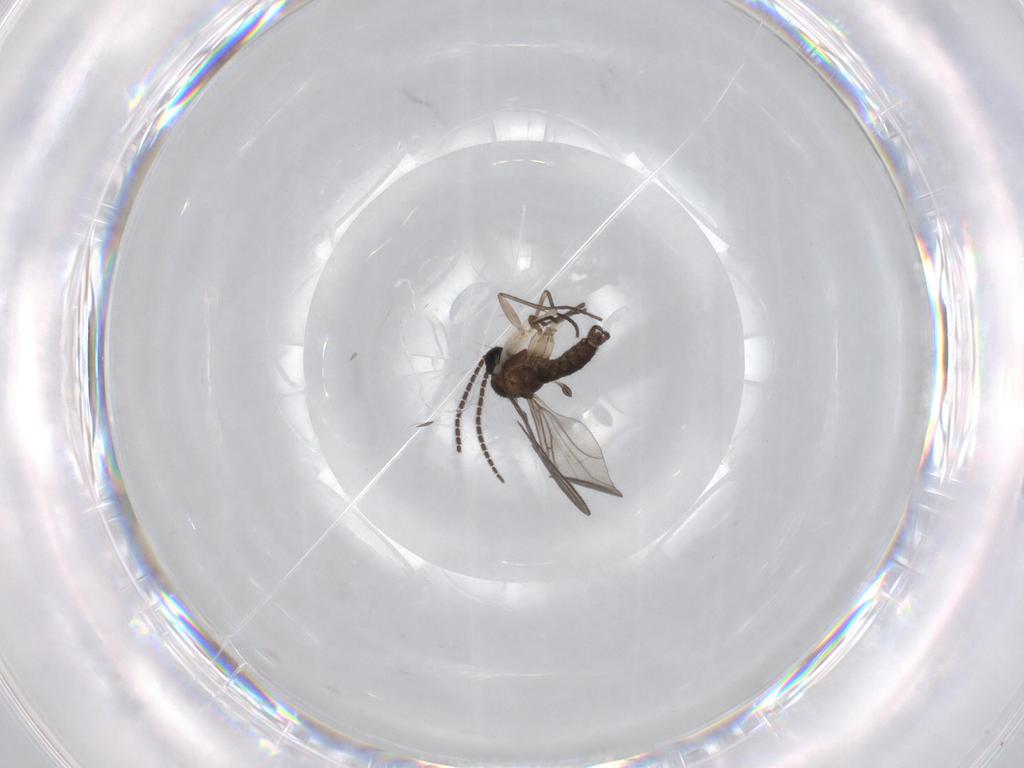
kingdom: Animalia
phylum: Arthropoda
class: Insecta
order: Diptera
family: Sciaridae
